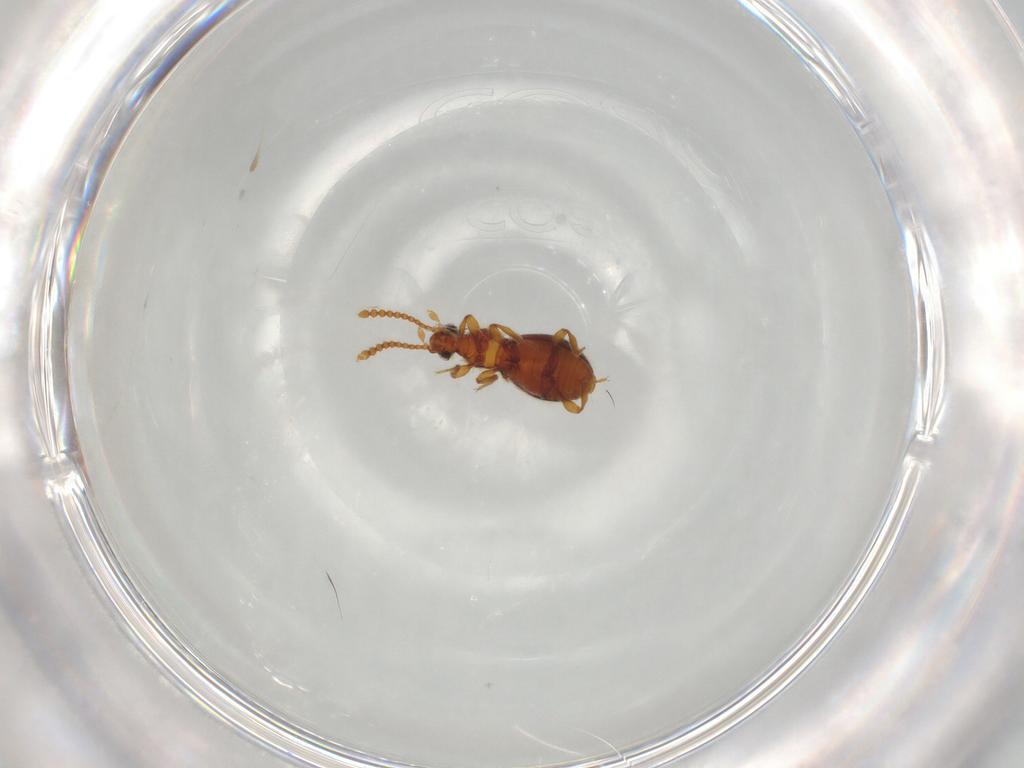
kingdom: Animalia
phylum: Arthropoda
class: Insecta
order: Coleoptera
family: Staphylinidae
